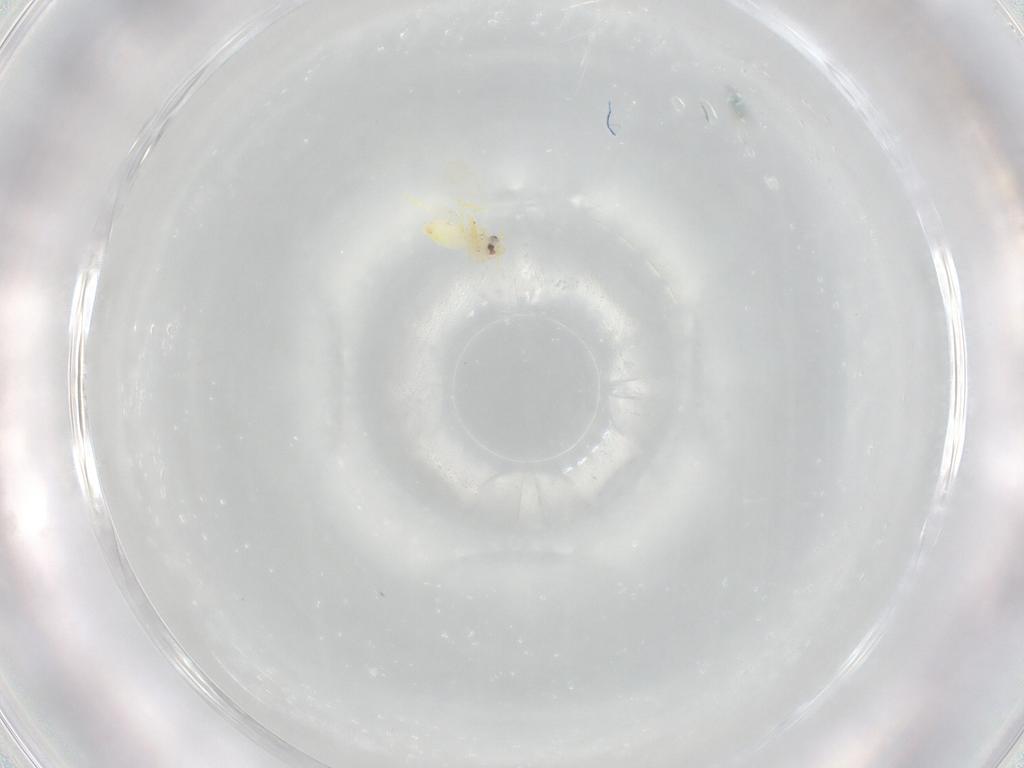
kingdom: Animalia
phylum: Arthropoda
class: Insecta
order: Hemiptera
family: Aleyrodidae
